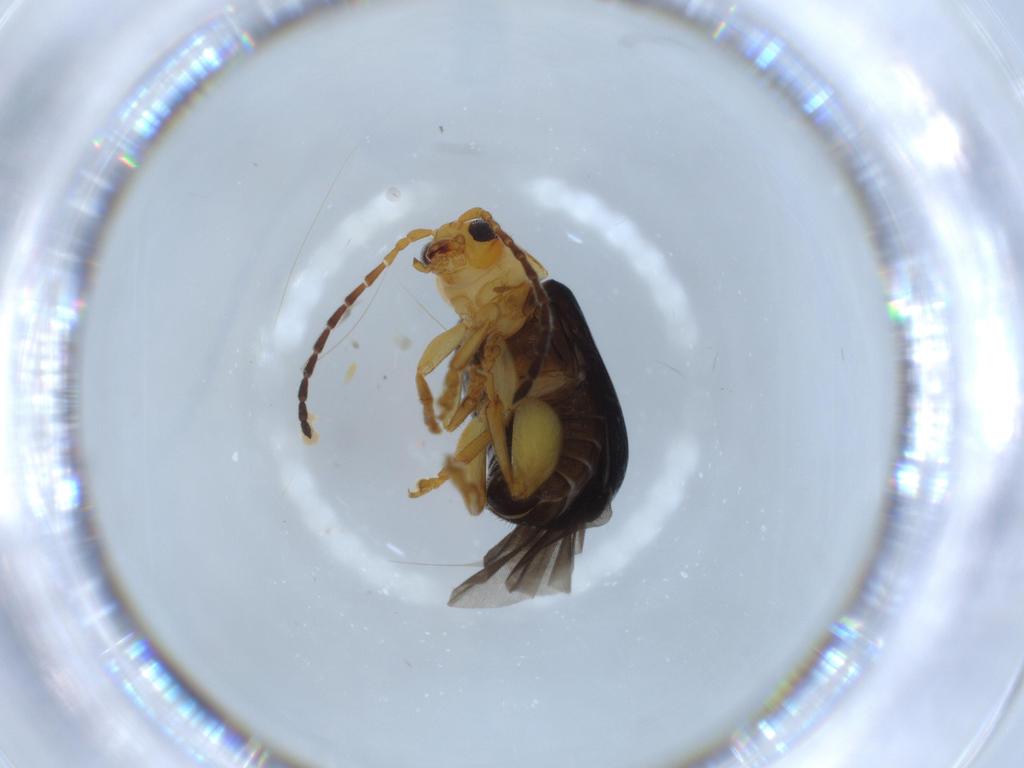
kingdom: Animalia
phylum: Arthropoda
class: Insecta
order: Coleoptera
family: Chrysomelidae
